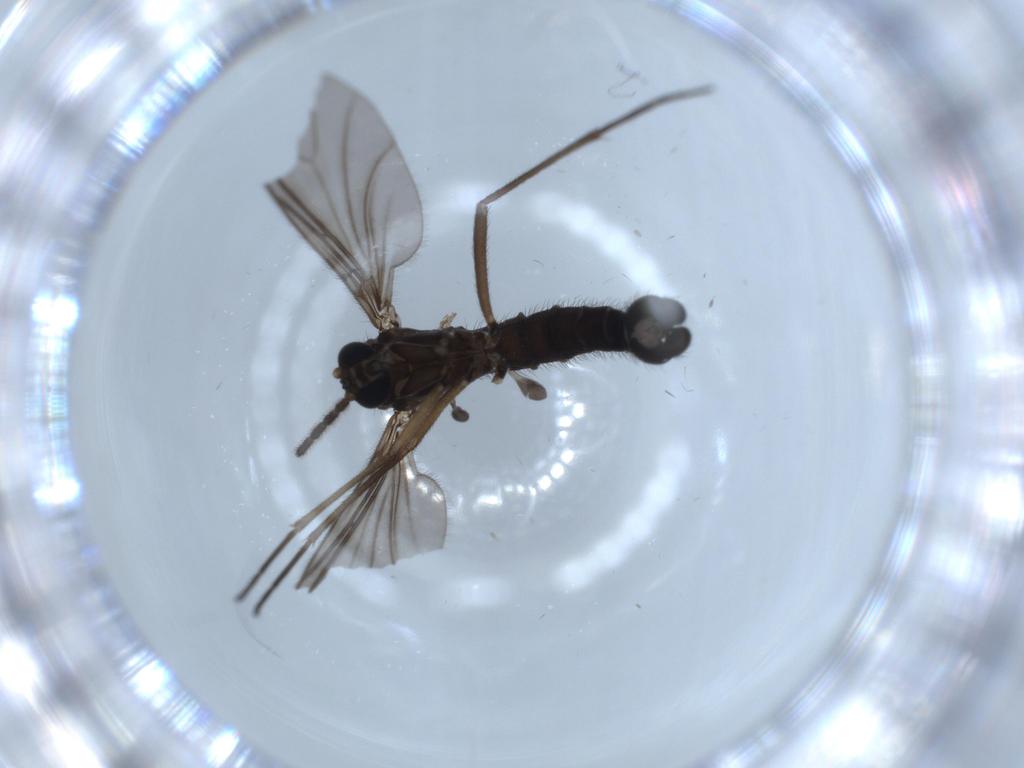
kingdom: Animalia
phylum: Arthropoda
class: Insecta
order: Diptera
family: Sciaridae
